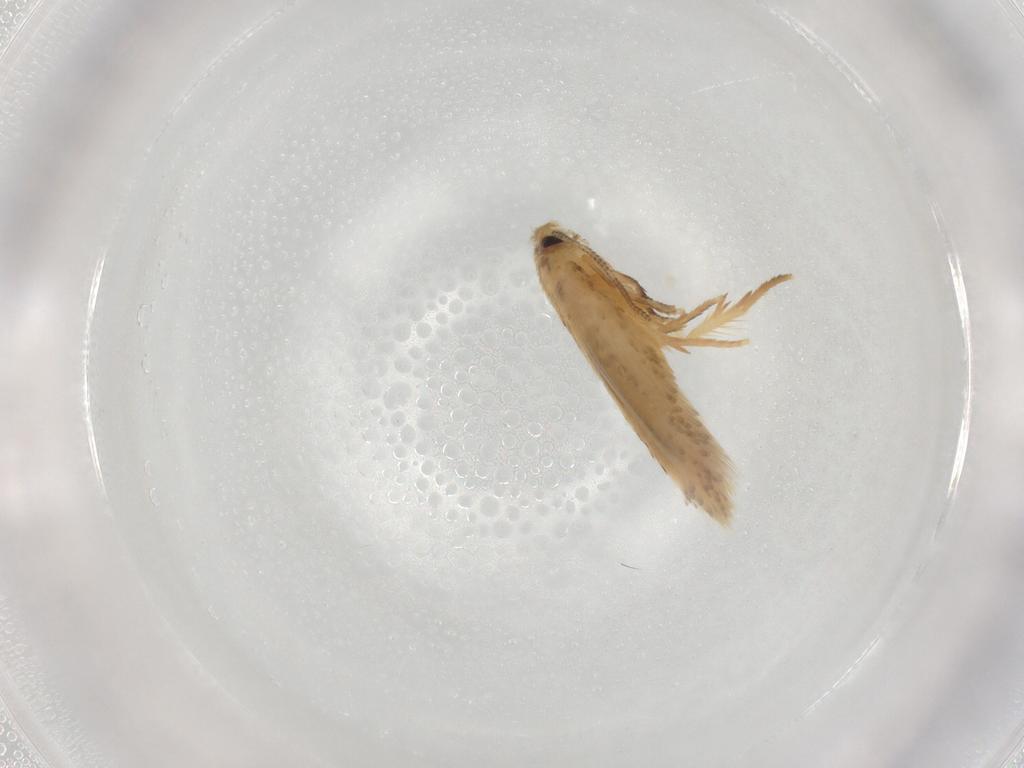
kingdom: Animalia
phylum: Arthropoda
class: Insecta
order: Lepidoptera
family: Nepticulidae
